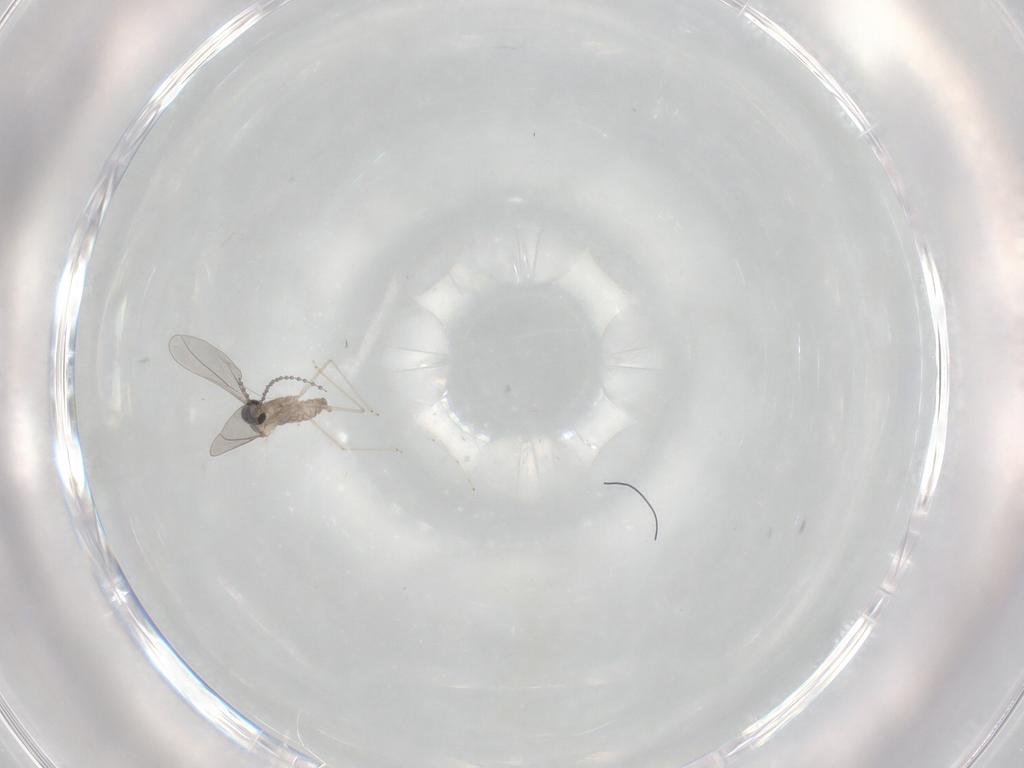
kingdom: Animalia
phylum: Arthropoda
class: Insecta
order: Diptera
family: Cecidomyiidae
